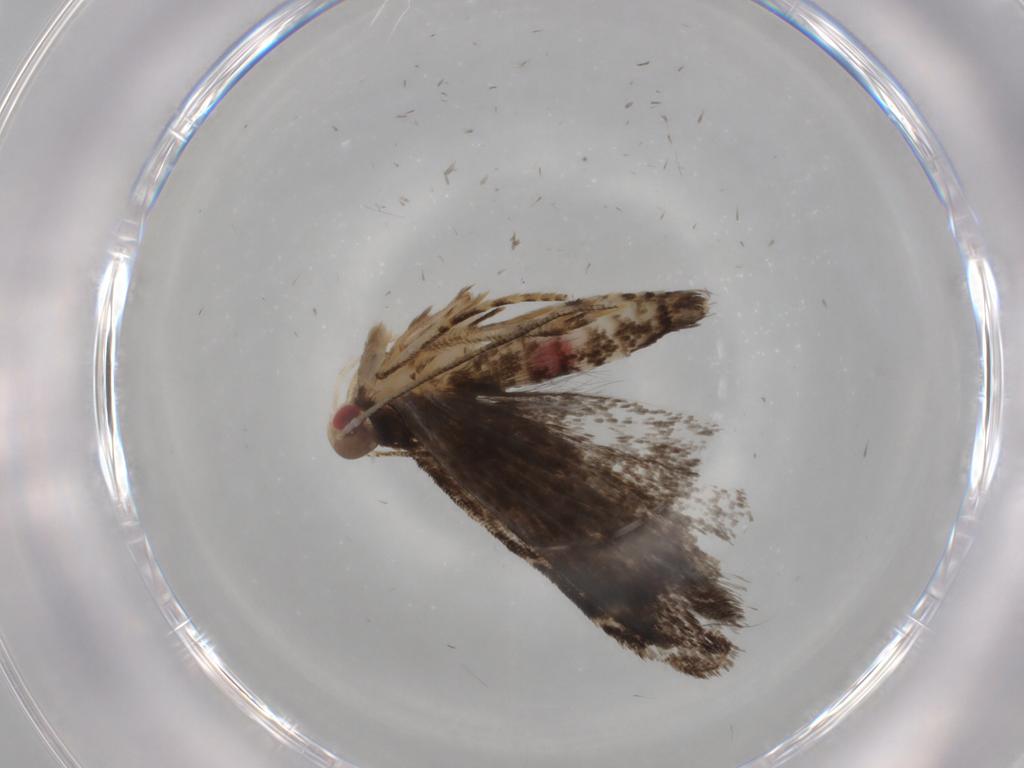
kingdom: Animalia
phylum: Arthropoda
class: Insecta
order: Lepidoptera
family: Gelechiidae
